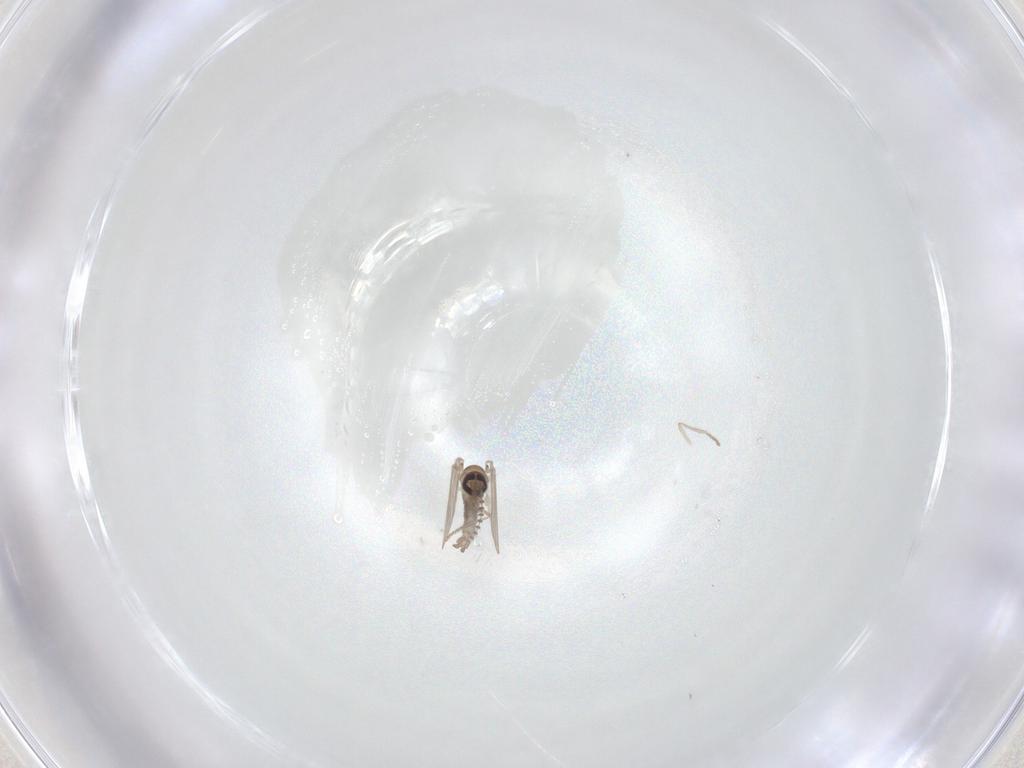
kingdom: Animalia
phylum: Arthropoda
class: Insecta
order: Diptera
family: Psychodidae
